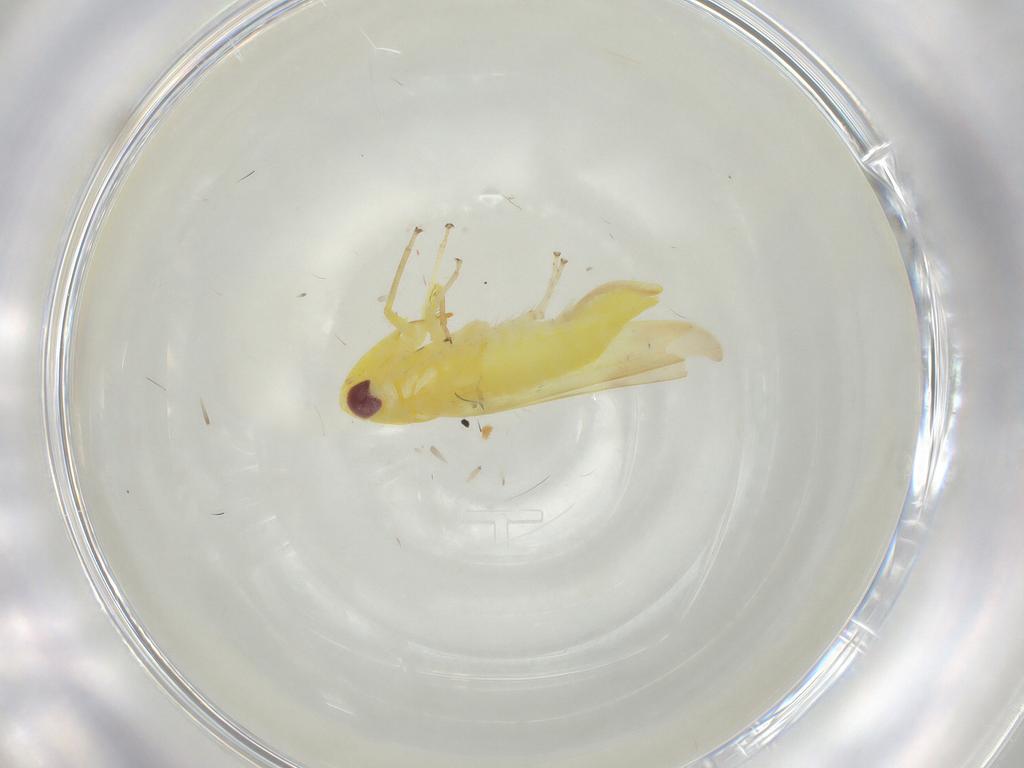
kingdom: Animalia
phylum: Arthropoda
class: Insecta
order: Hemiptera
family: Cicadellidae
